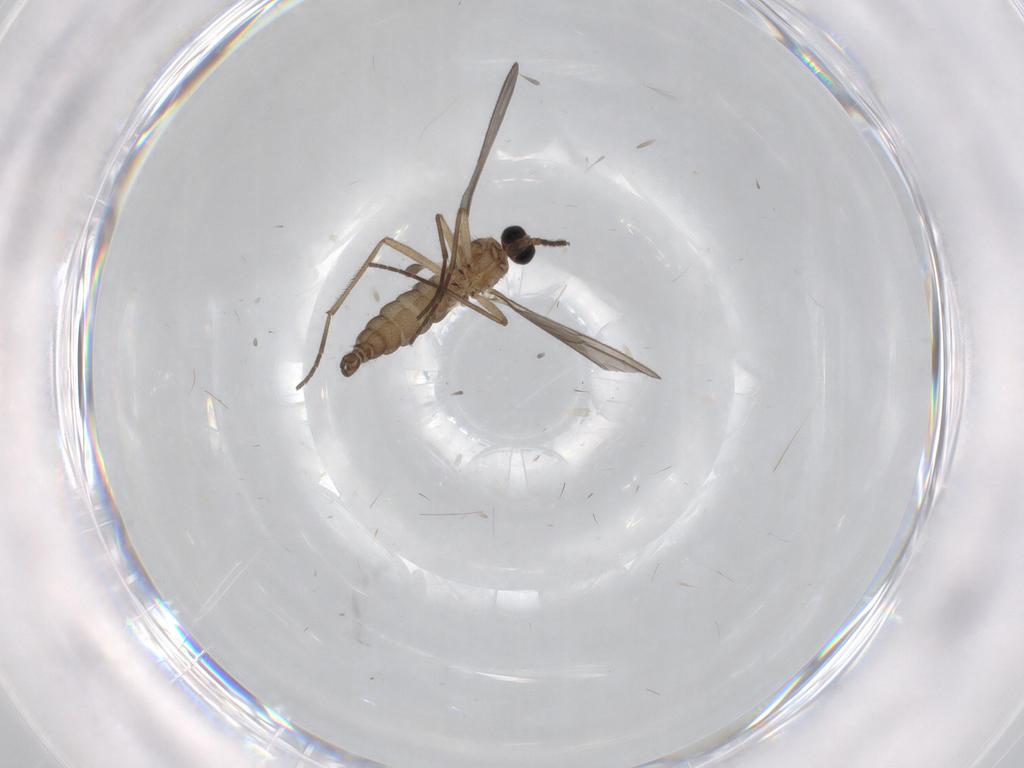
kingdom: Animalia
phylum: Arthropoda
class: Insecta
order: Diptera
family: Sciaridae
